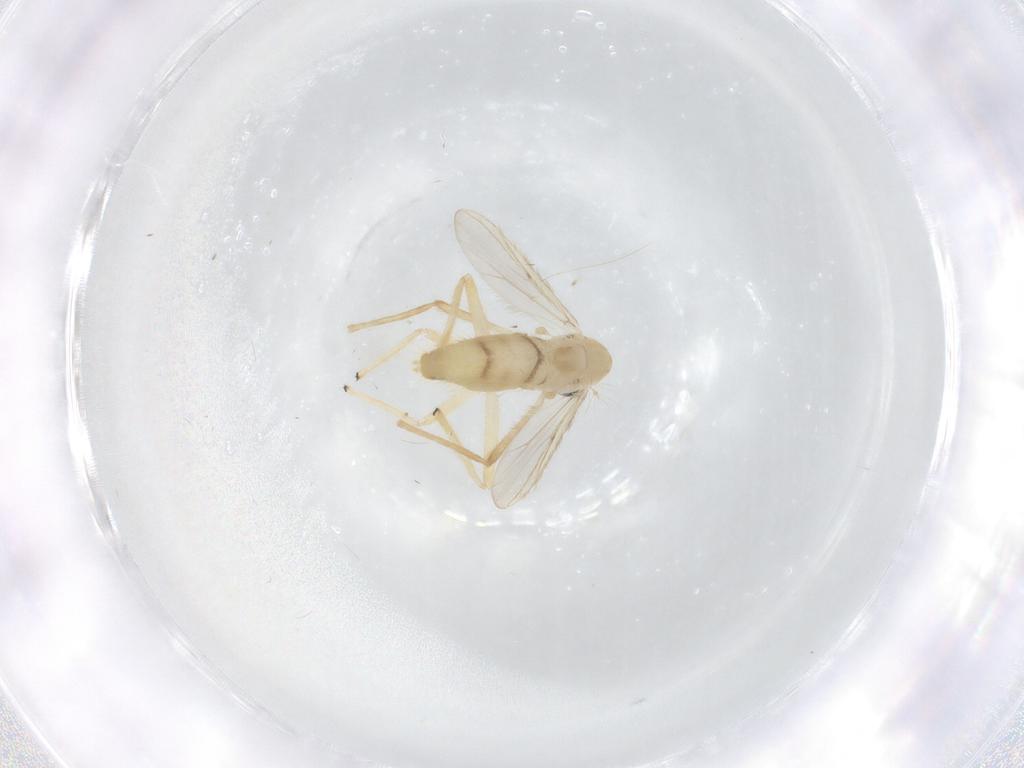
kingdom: Animalia
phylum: Arthropoda
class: Insecta
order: Diptera
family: Chironomidae
